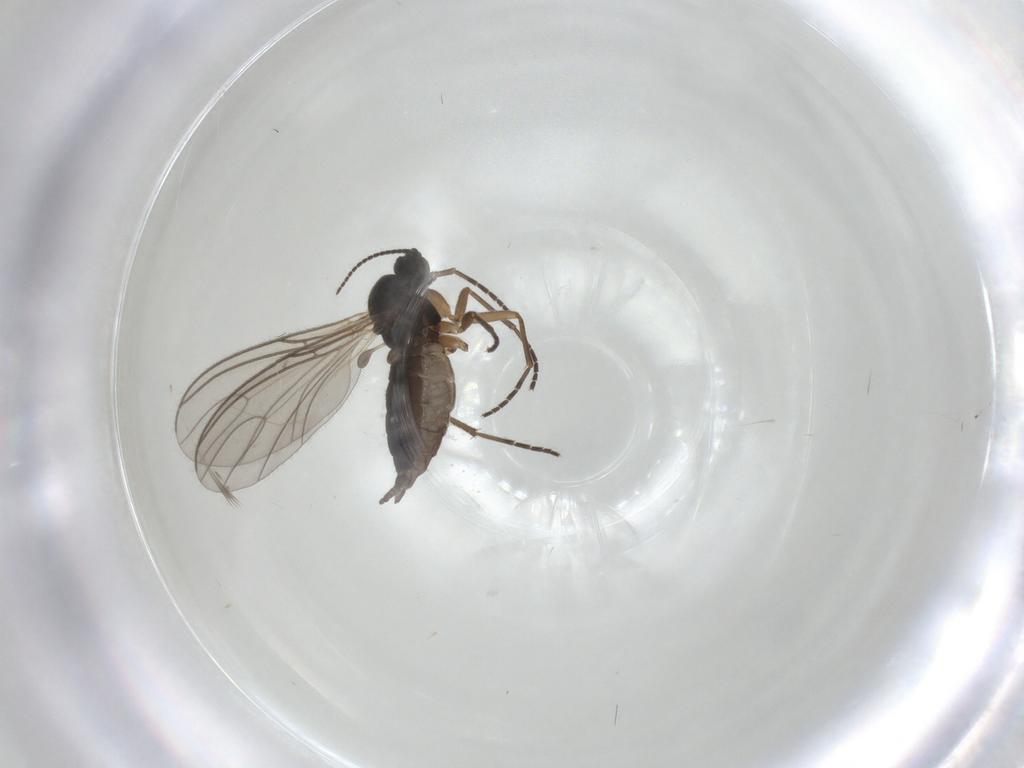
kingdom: Animalia
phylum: Arthropoda
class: Insecta
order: Diptera
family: Sciaridae
